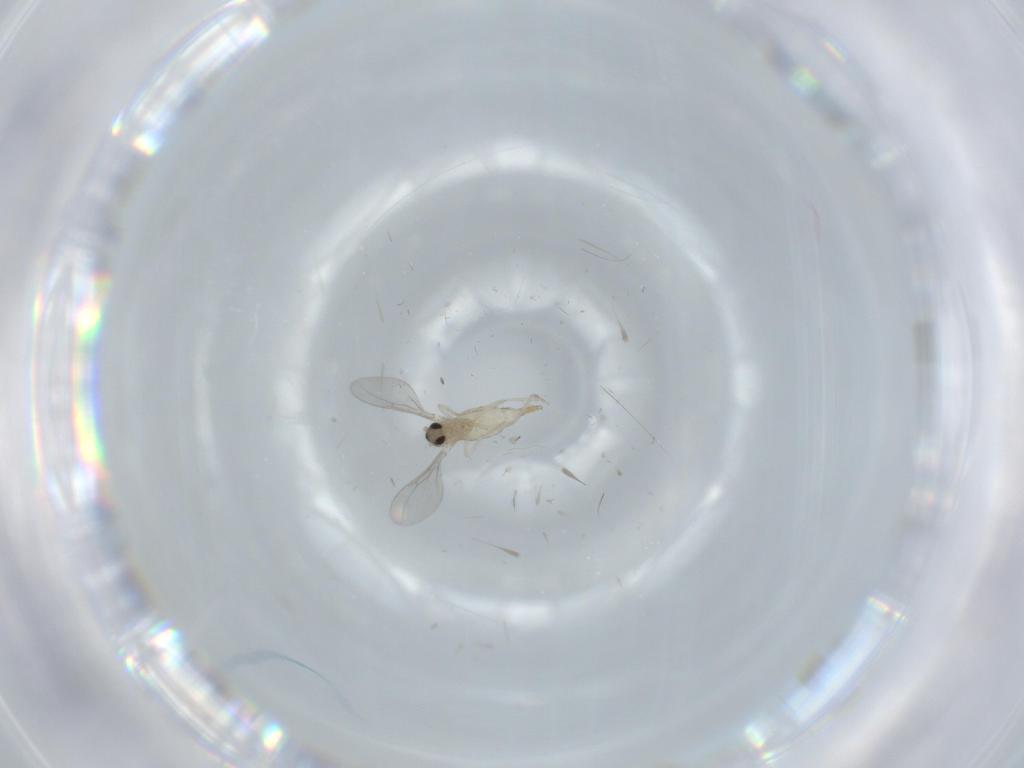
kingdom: Animalia
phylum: Arthropoda
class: Insecta
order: Diptera
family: Cecidomyiidae
